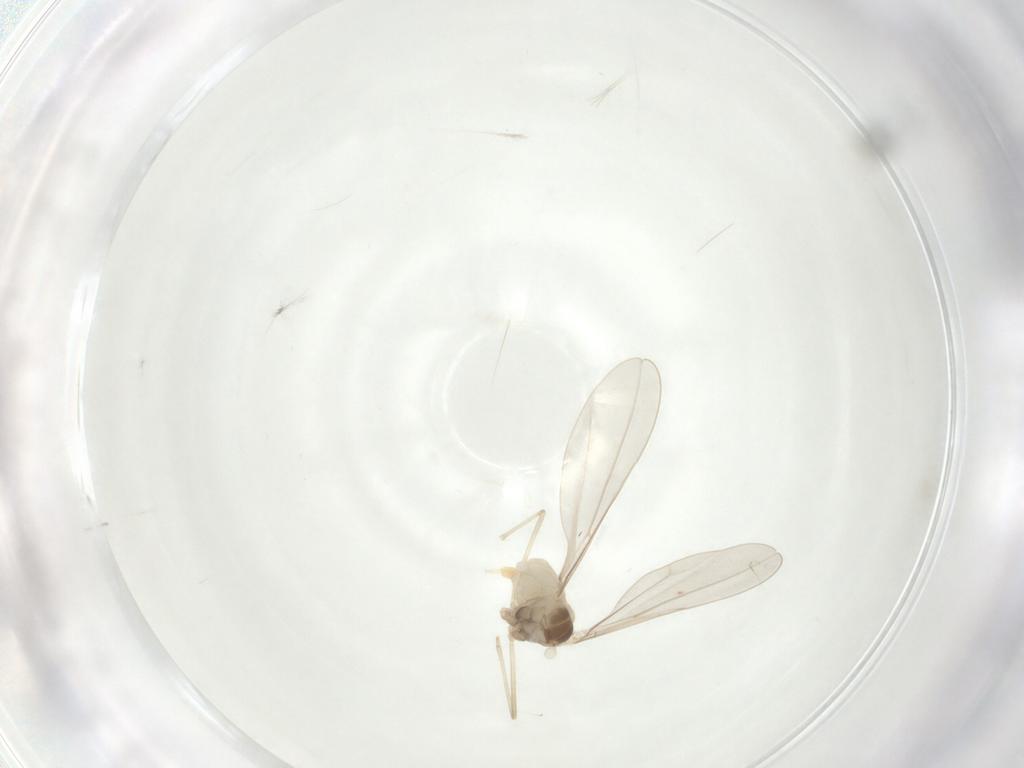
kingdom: Animalia
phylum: Arthropoda
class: Insecta
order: Diptera
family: Cecidomyiidae
